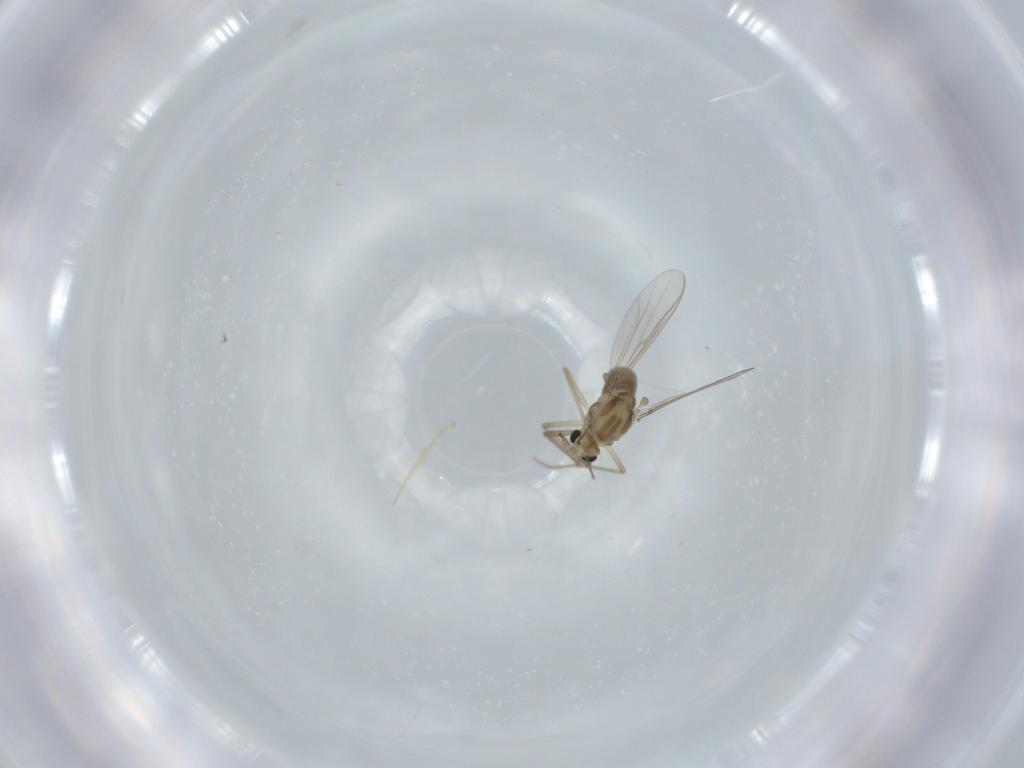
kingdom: Animalia
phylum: Arthropoda
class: Insecta
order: Diptera
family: Chironomidae
